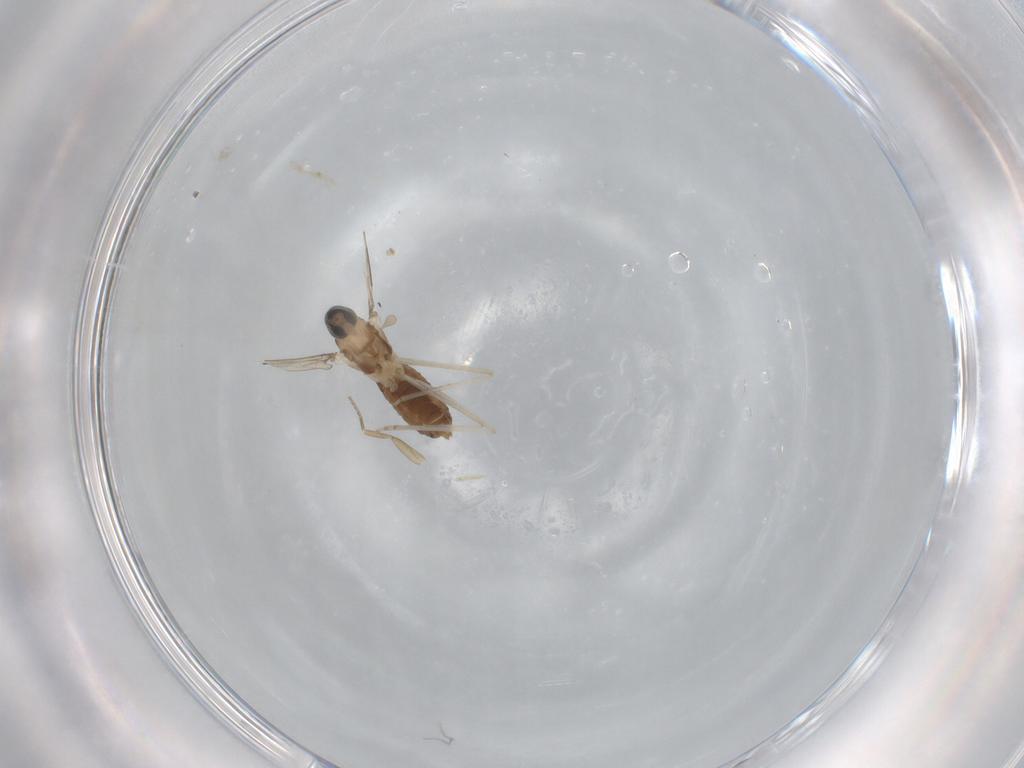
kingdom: Animalia
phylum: Arthropoda
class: Insecta
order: Diptera
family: Cecidomyiidae
